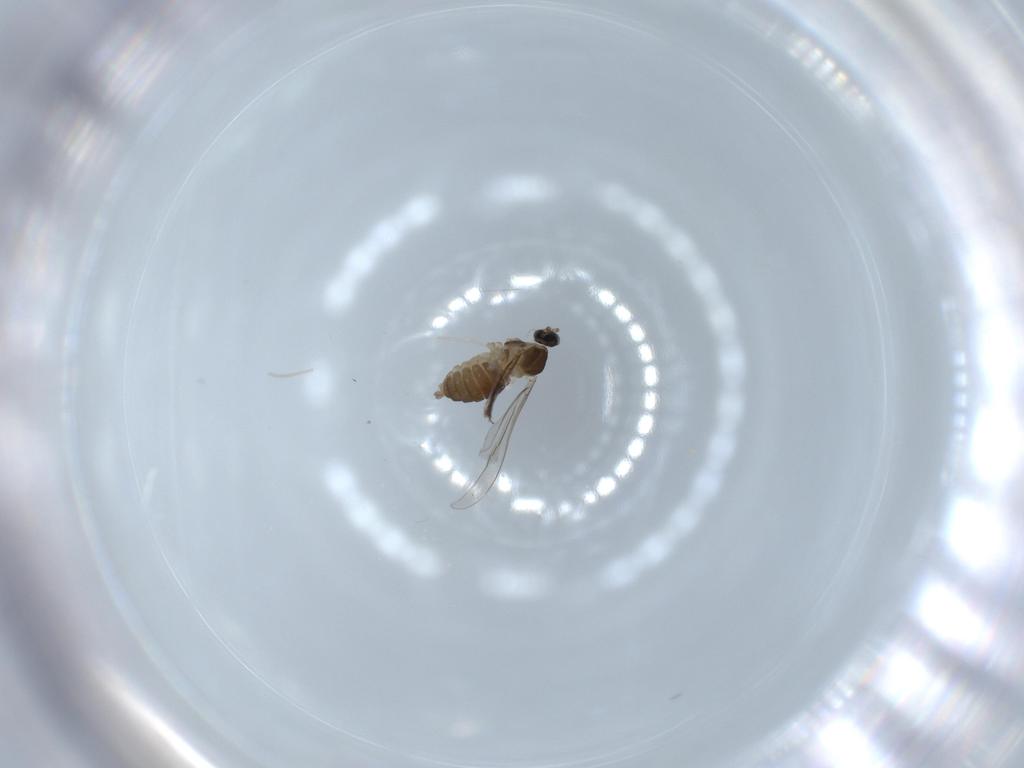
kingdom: Animalia
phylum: Arthropoda
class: Insecta
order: Diptera
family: Cecidomyiidae
